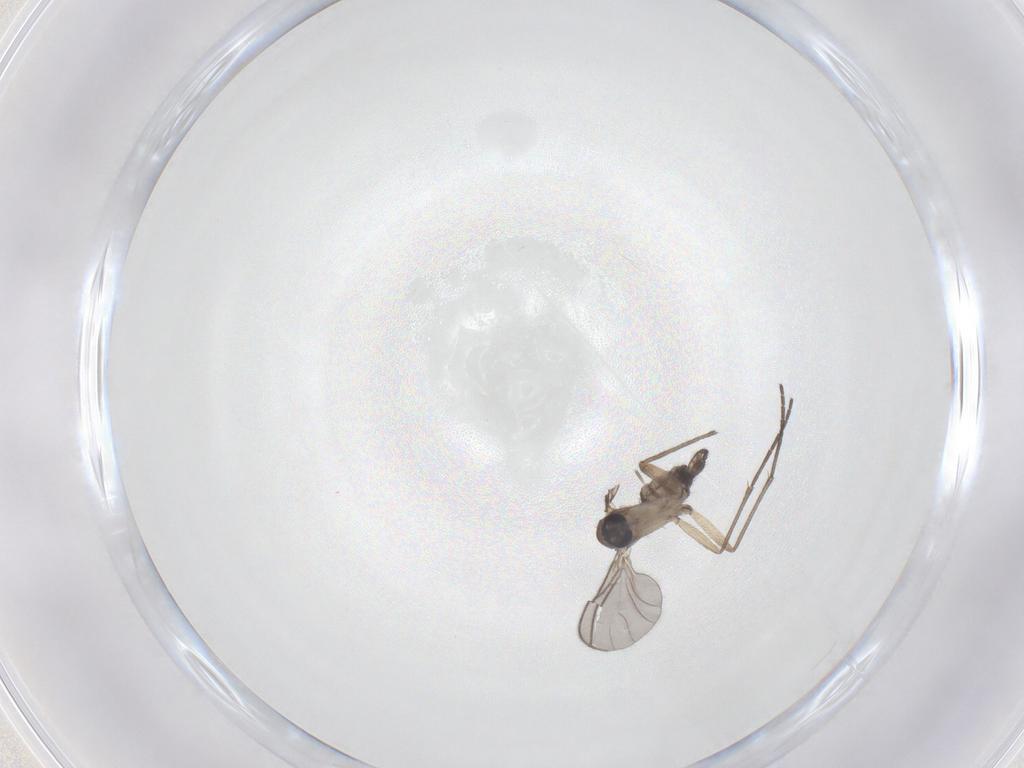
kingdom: Animalia
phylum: Arthropoda
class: Insecta
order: Diptera
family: Sciaridae
